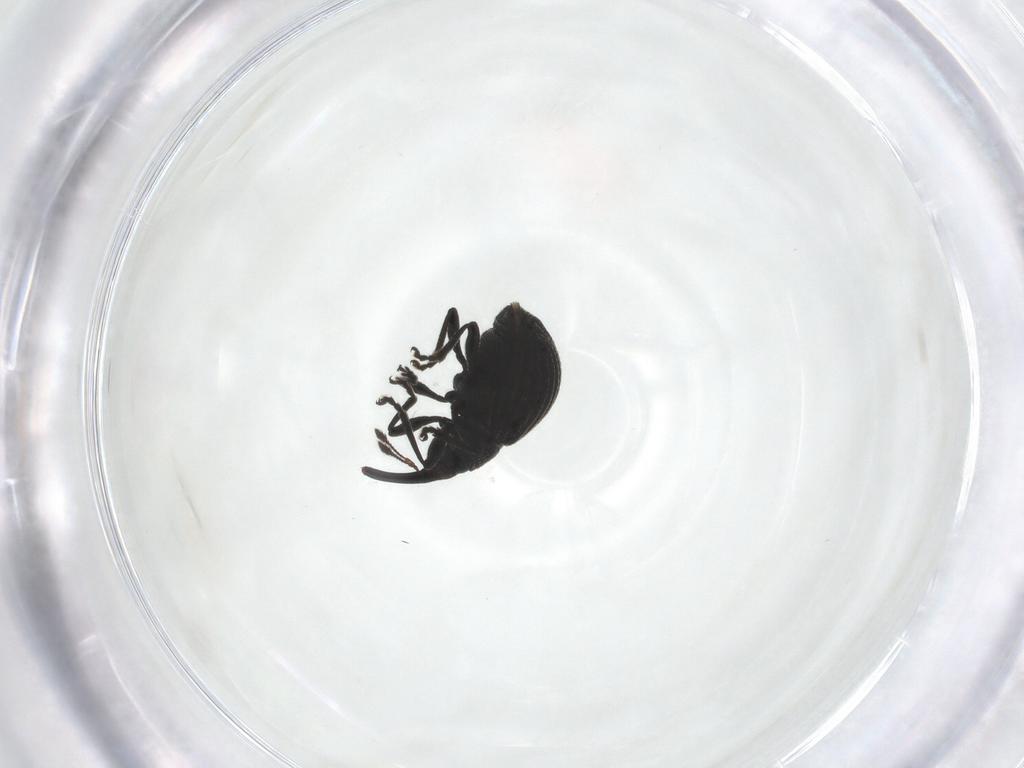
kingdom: Animalia
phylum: Arthropoda
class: Insecta
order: Coleoptera
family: Brentidae
